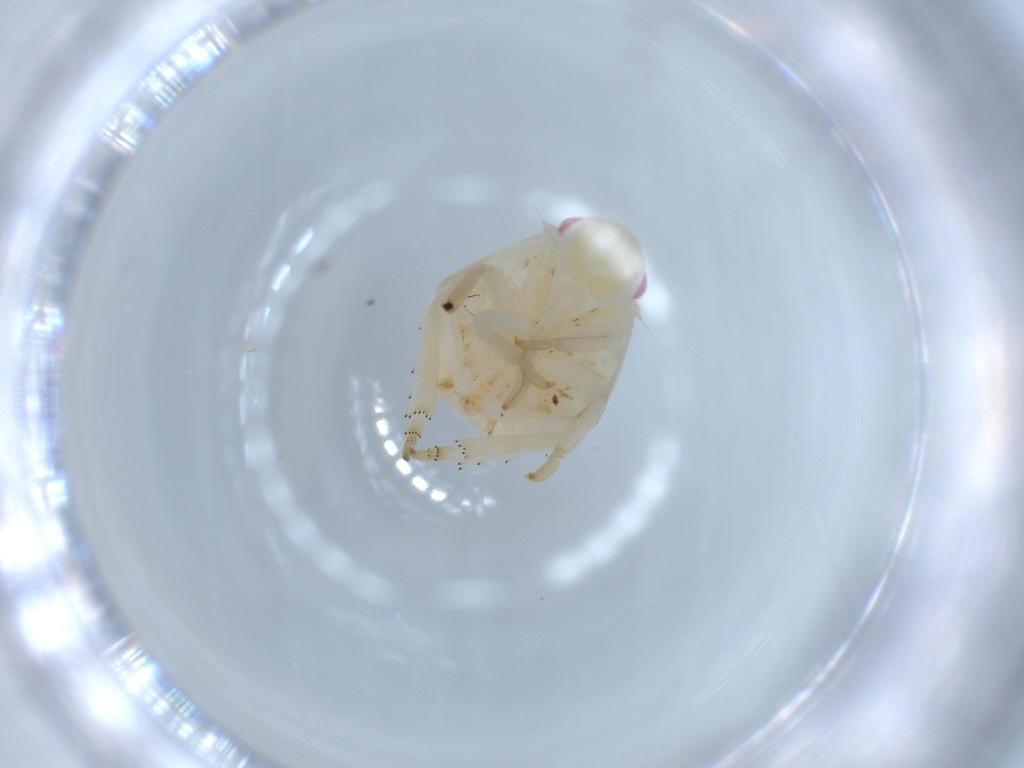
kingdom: Animalia
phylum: Arthropoda
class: Insecta
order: Hemiptera
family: Flatidae
